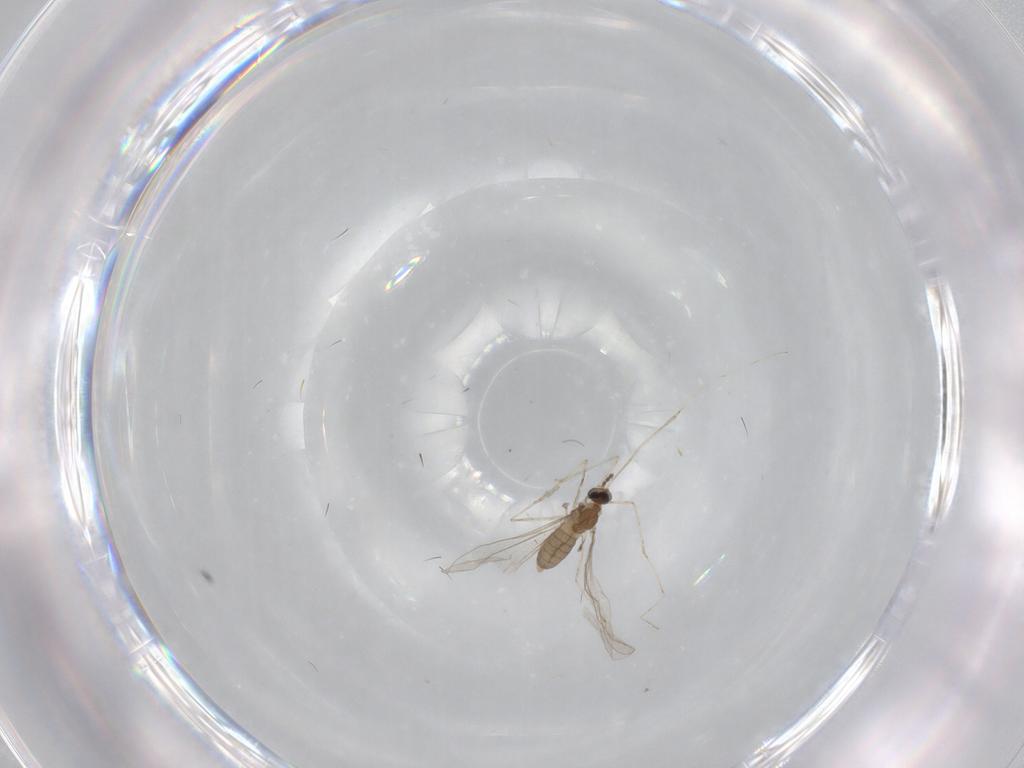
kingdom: Animalia
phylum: Arthropoda
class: Insecta
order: Diptera
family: Cecidomyiidae
